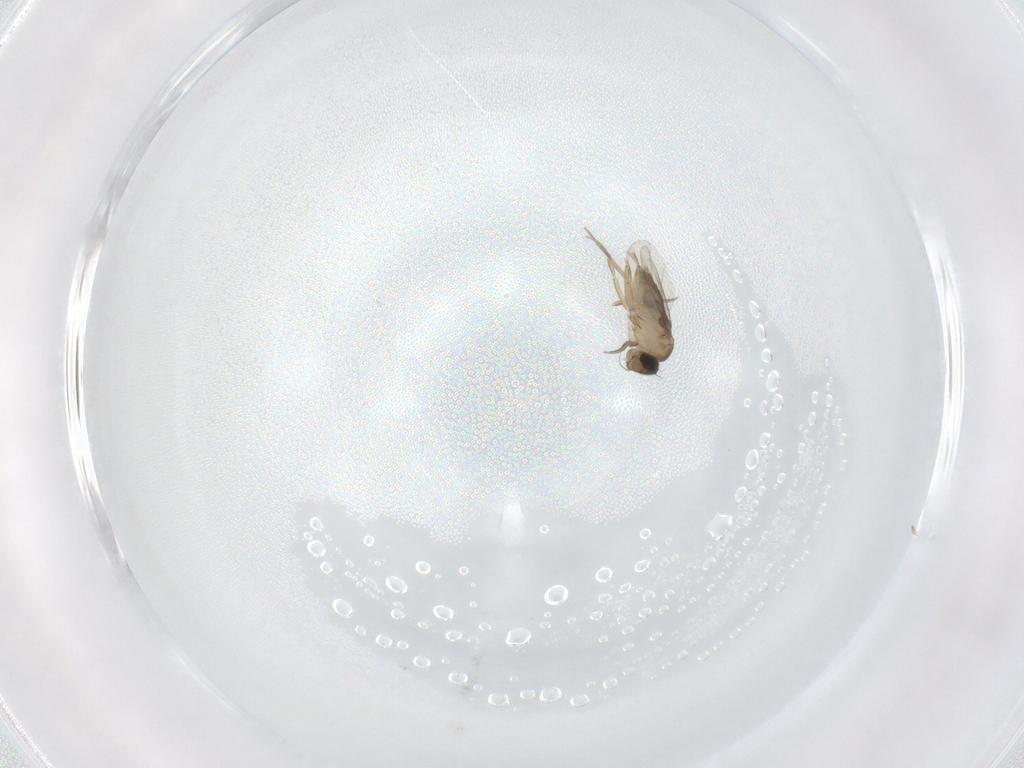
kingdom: Animalia
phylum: Arthropoda
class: Insecta
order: Diptera
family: Phoridae
